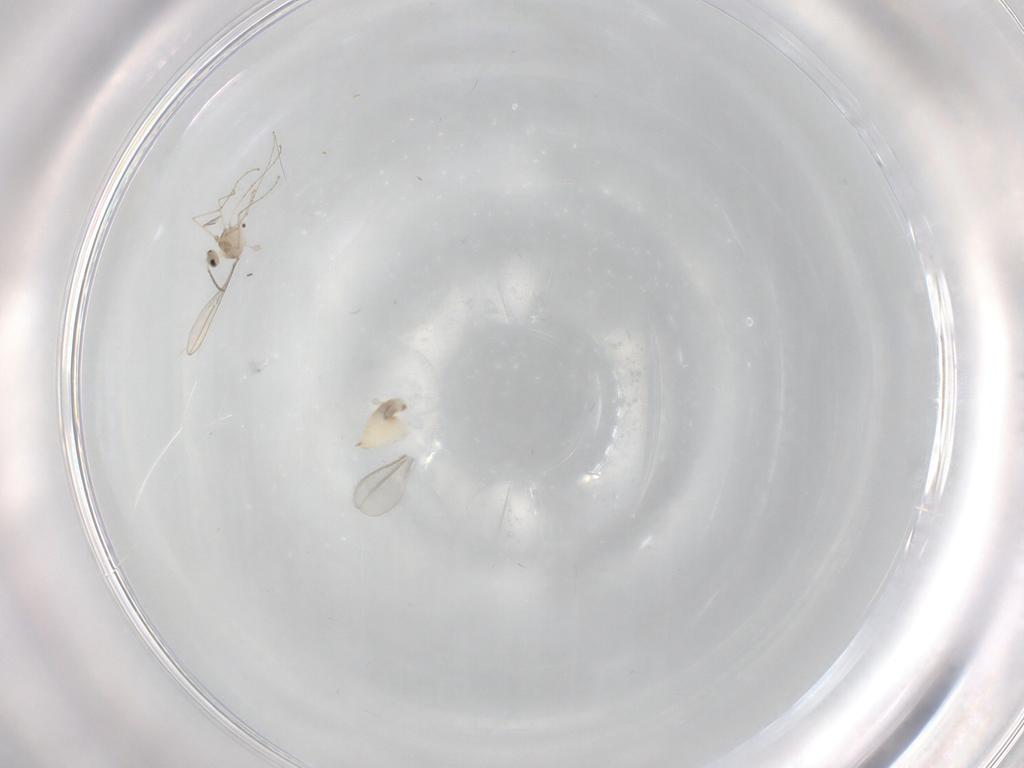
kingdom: Animalia
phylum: Arthropoda
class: Insecta
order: Diptera
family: Cecidomyiidae
